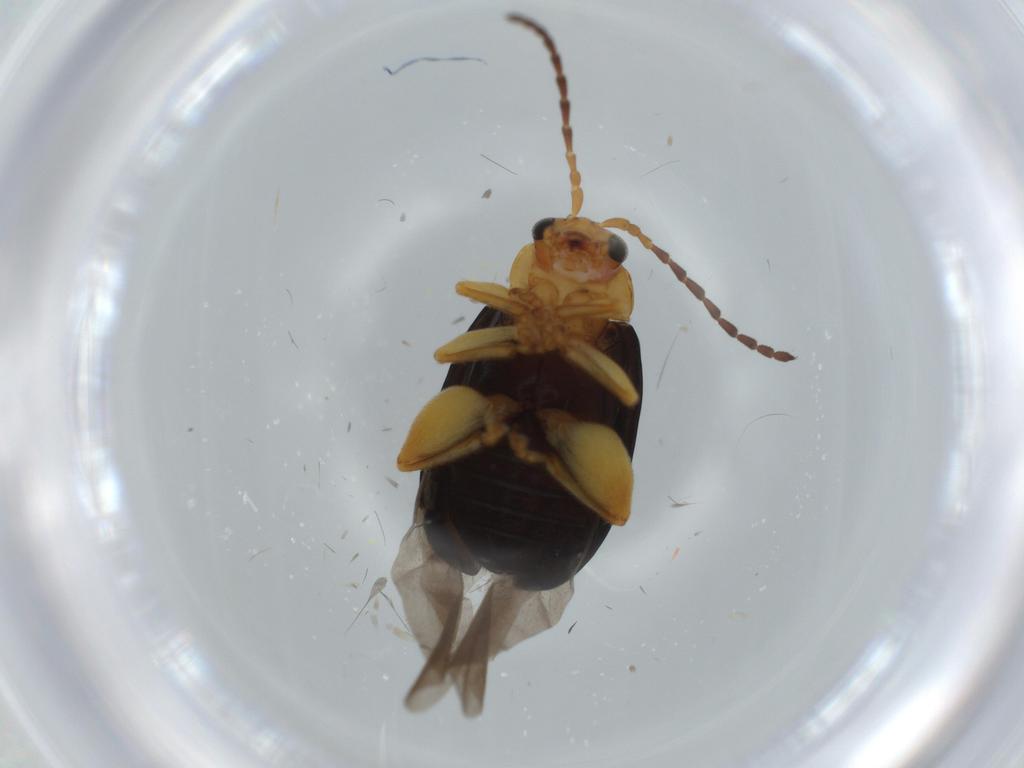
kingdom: Animalia
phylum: Arthropoda
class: Insecta
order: Coleoptera
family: Chrysomelidae
